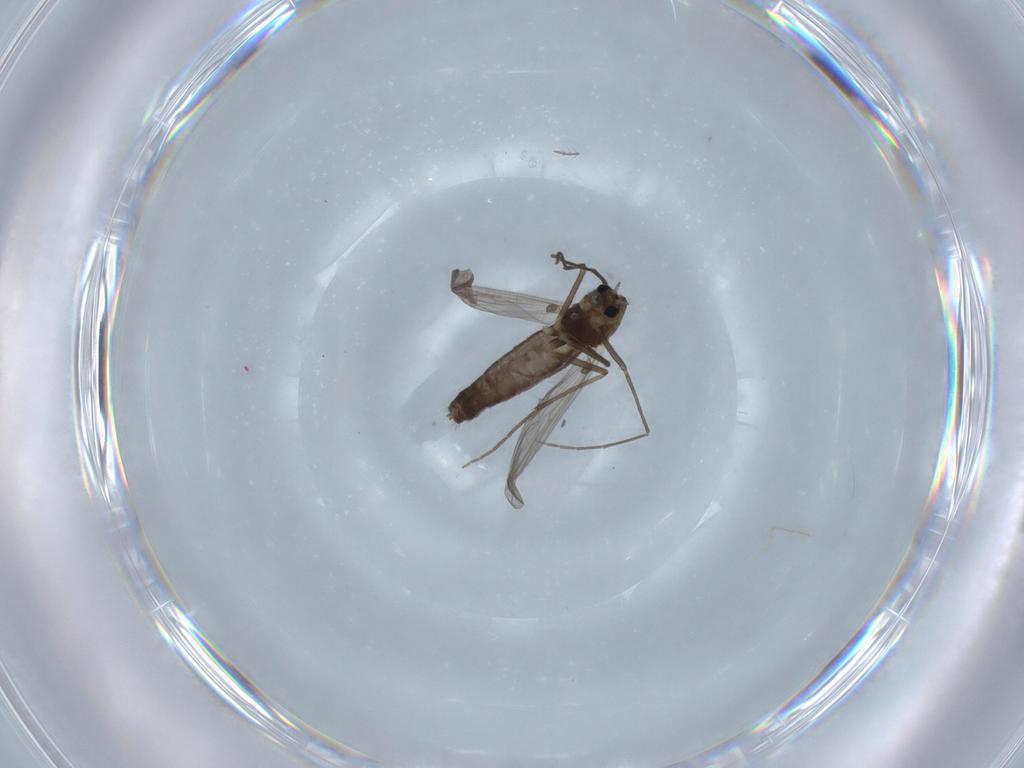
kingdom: Animalia
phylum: Arthropoda
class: Insecta
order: Diptera
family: Chironomidae
